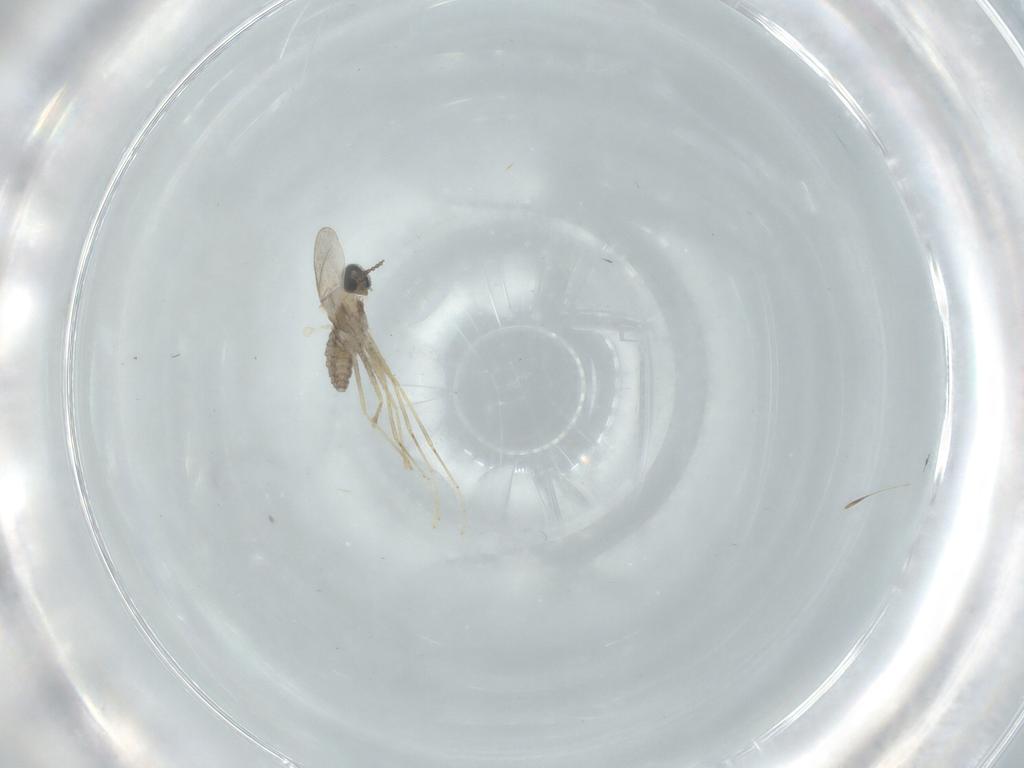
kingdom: Animalia
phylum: Arthropoda
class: Insecta
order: Diptera
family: Cecidomyiidae
